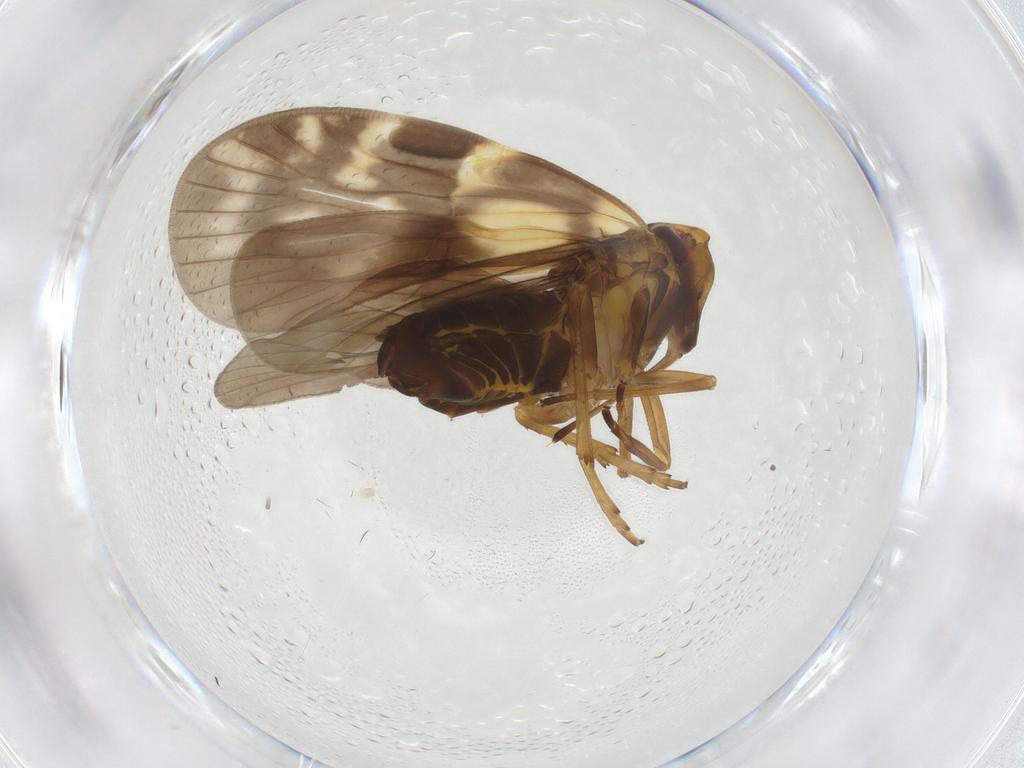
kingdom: Animalia
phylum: Arthropoda
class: Insecta
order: Hemiptera
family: Cixiidae
